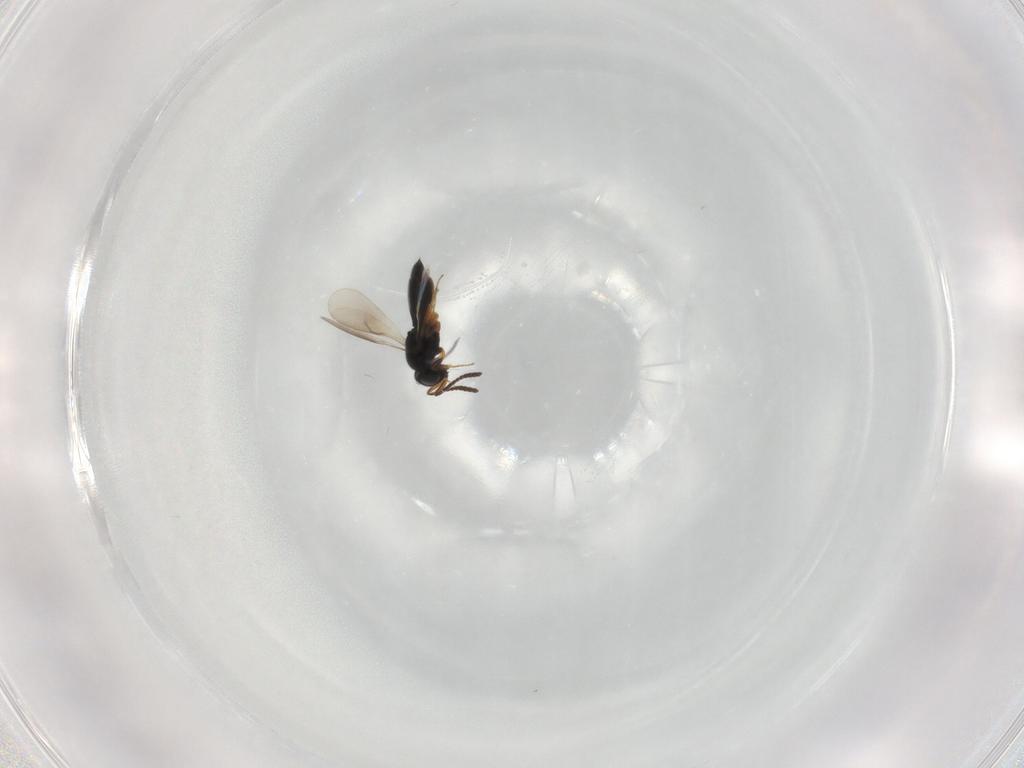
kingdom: Animalia
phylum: Arthropoda
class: Insecta
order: Hymenoptera
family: Scelionidae
